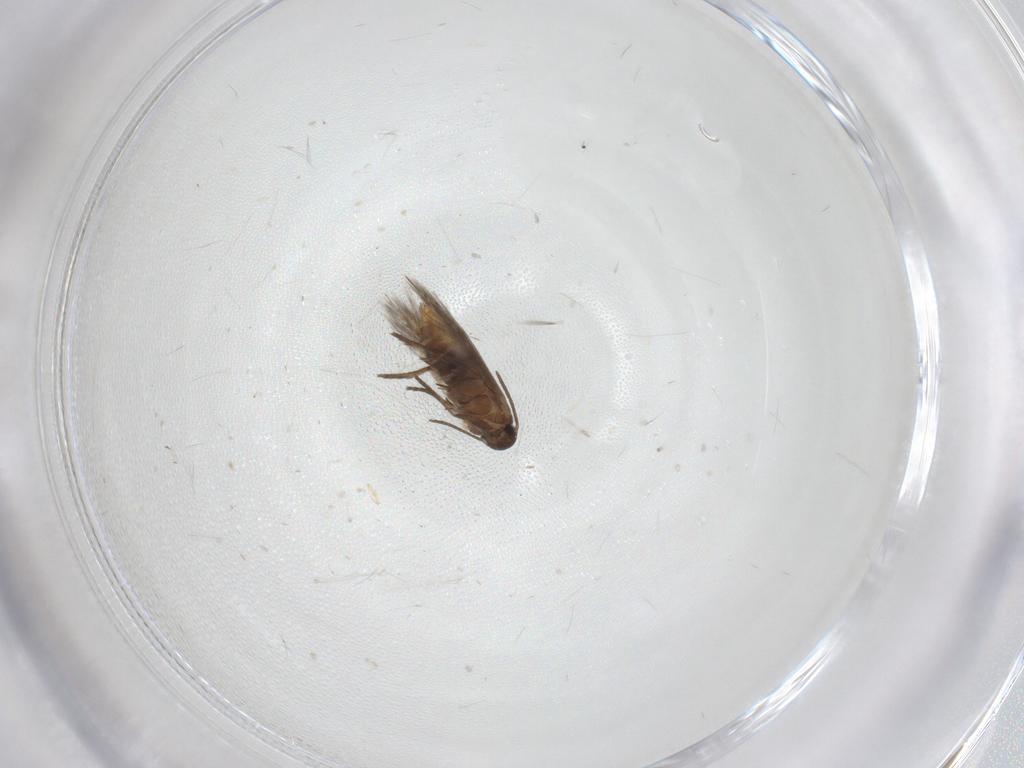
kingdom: Animalia
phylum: Arthropoda
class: Insecta
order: Lepidoptera
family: Heliozelidae
